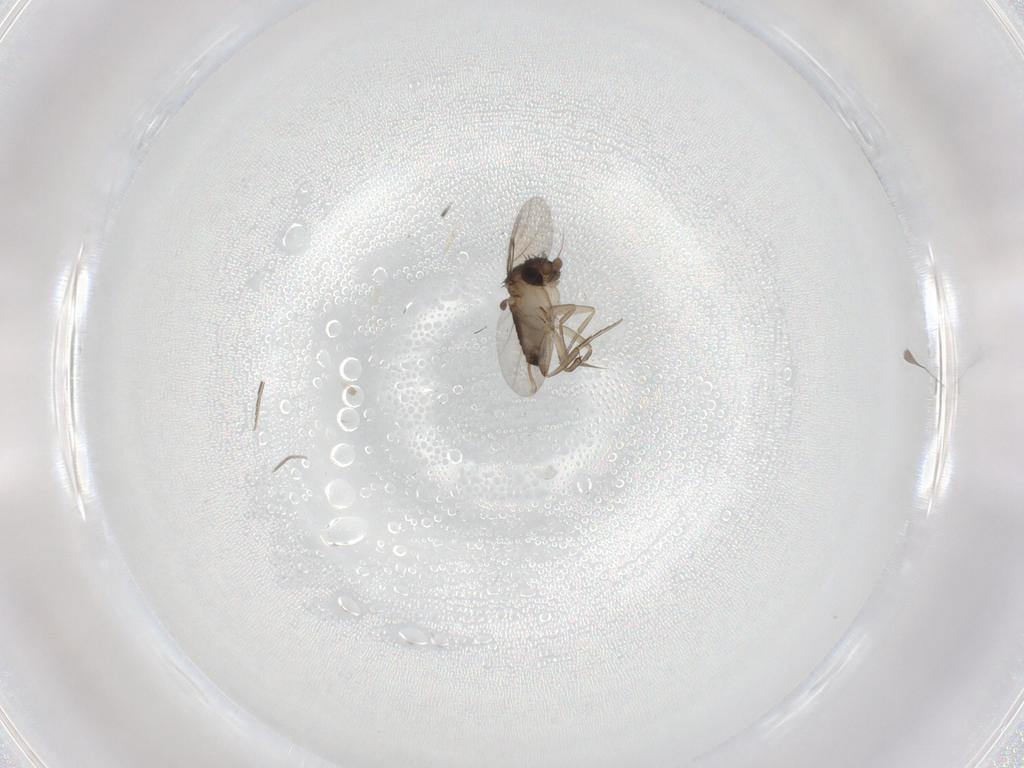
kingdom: Animalia
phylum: Arthropoda
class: Insecta
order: Diptera
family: Phoridae
